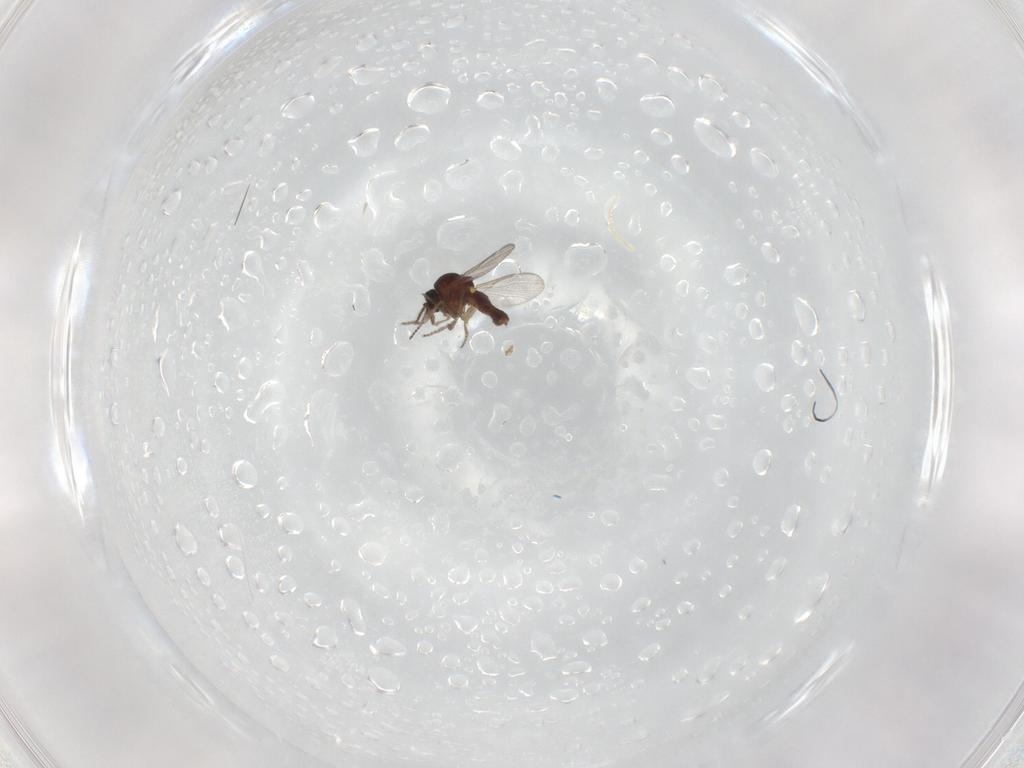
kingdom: Animalia
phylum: Arthropoda
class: Insecta
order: Diptera
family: Ceratopogonidae
